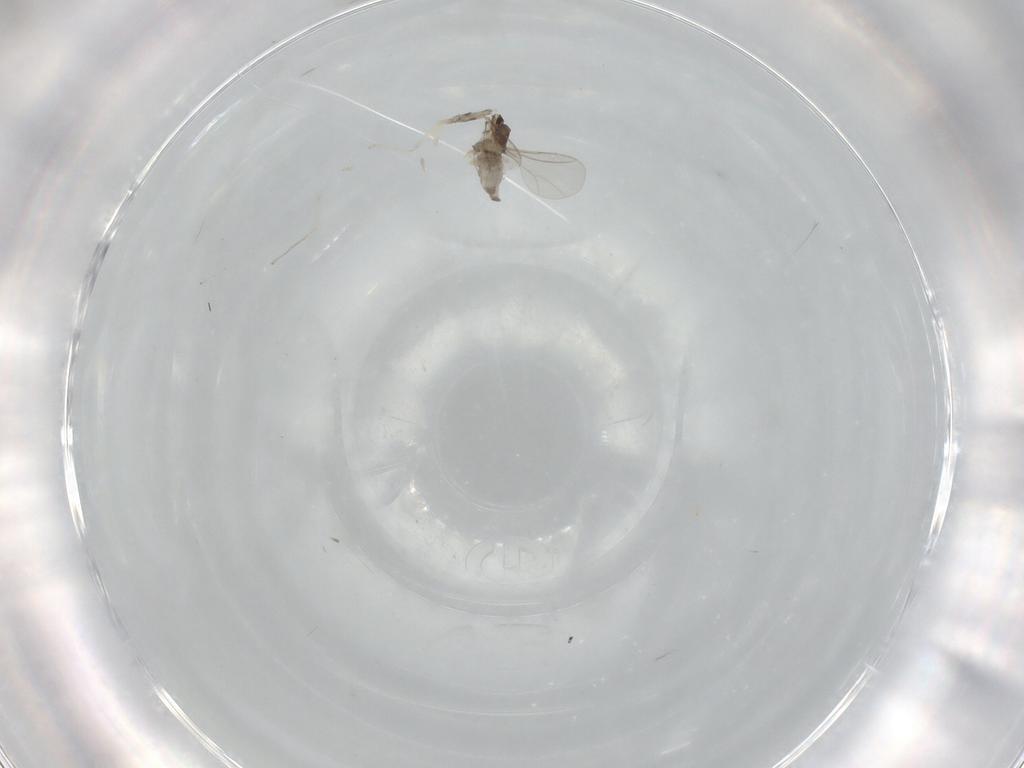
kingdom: Animalia
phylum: Arthropoda
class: Insecta
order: Diptera
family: Cecidomyiidae
